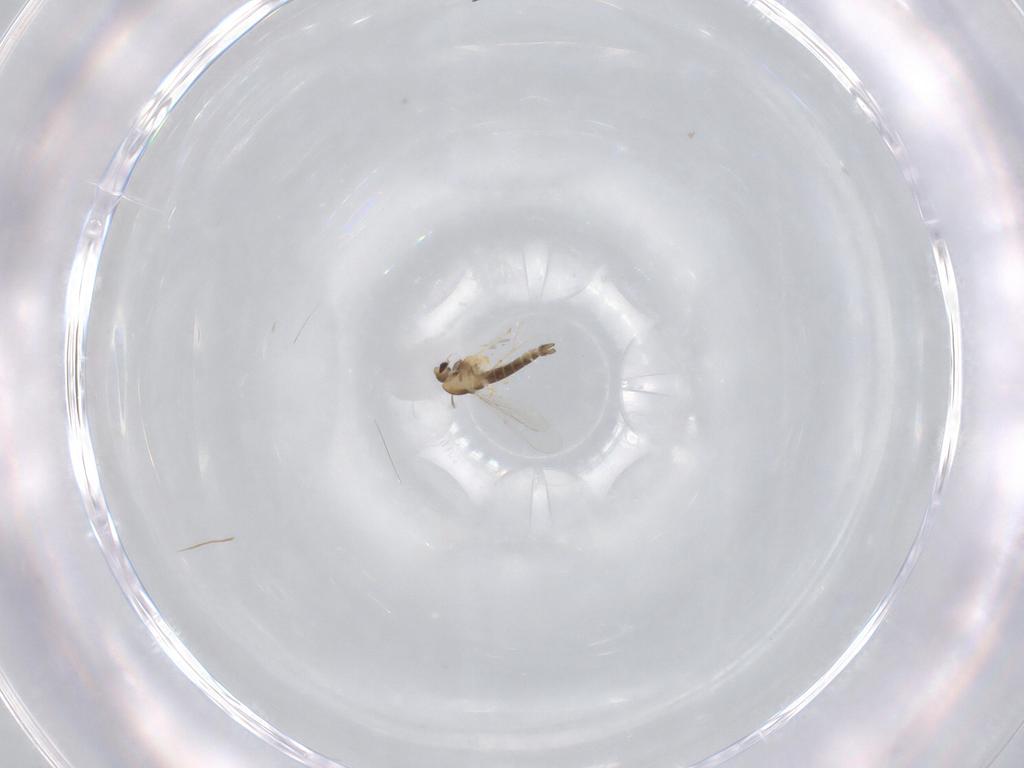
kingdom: Animalia
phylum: Arthropoda
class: Insecta
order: Diptera
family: Chironomidae
